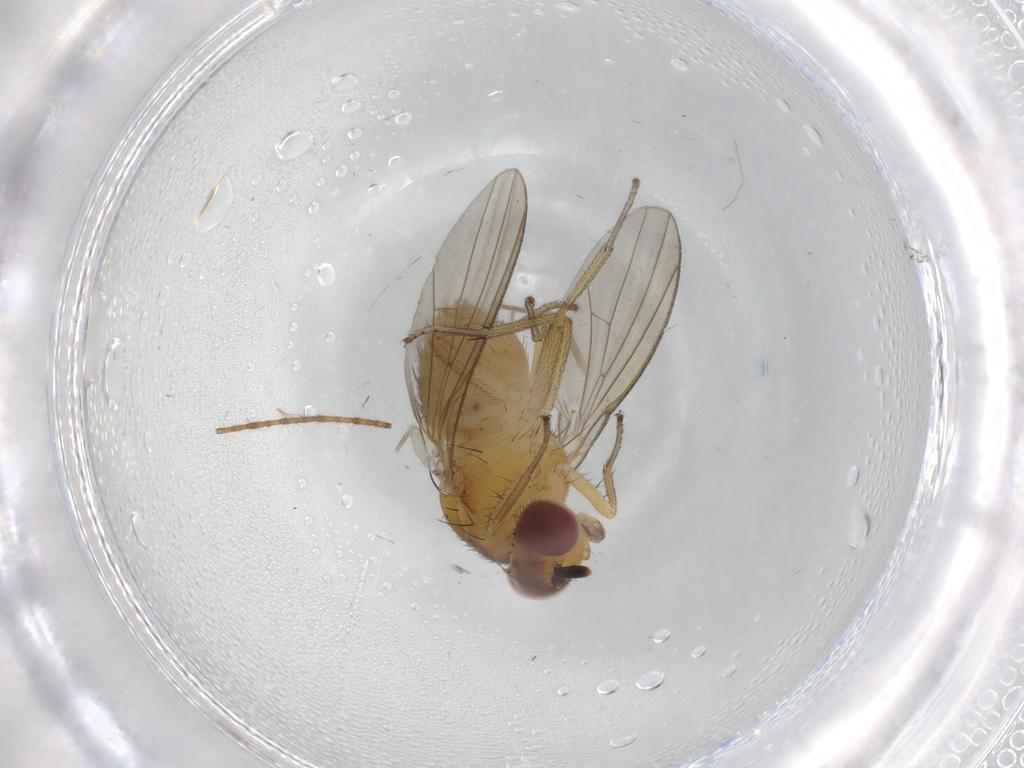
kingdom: Animalia
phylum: Arthropoda
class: Insecta
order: Diptera
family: Lauxaniidae
